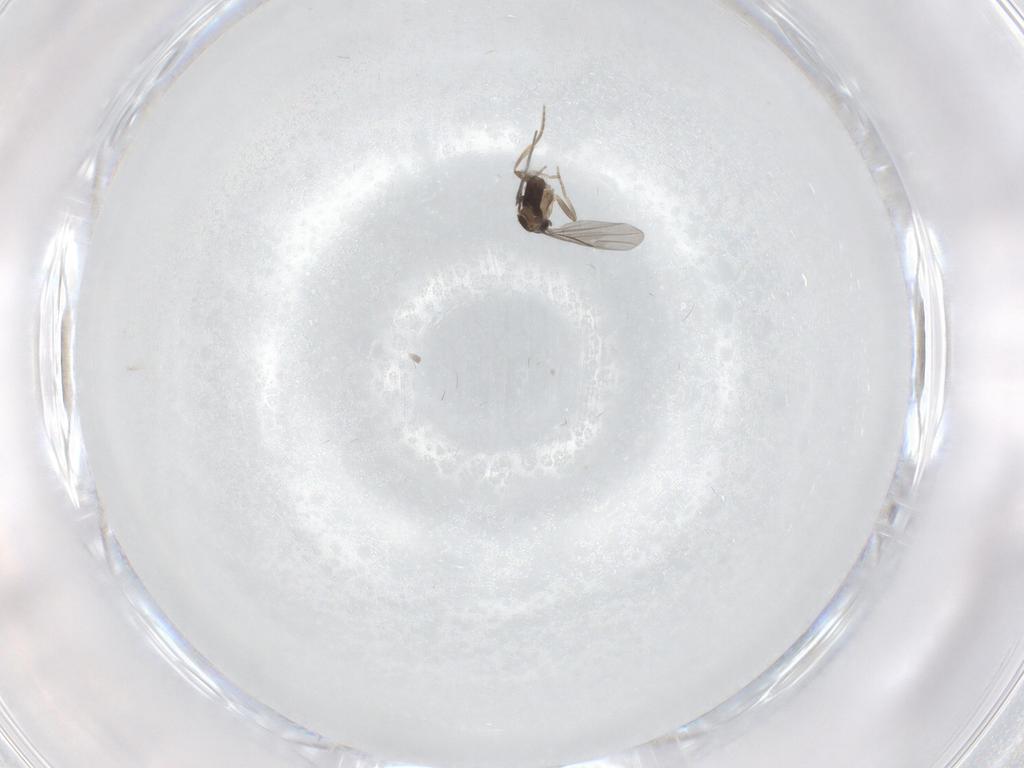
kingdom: Animalia
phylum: Arthropoda
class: Insecta
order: Diptera
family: Psychodidae
